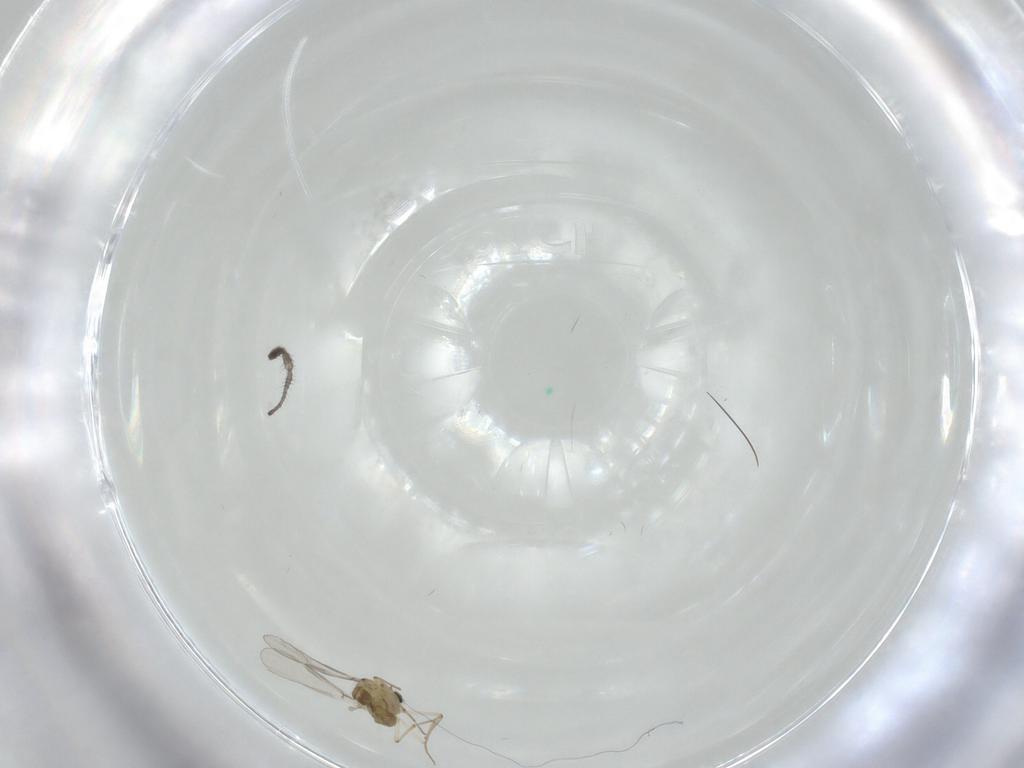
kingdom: Animalia
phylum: Arthropoda
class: Insecta
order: Diptera
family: Chironomidae
